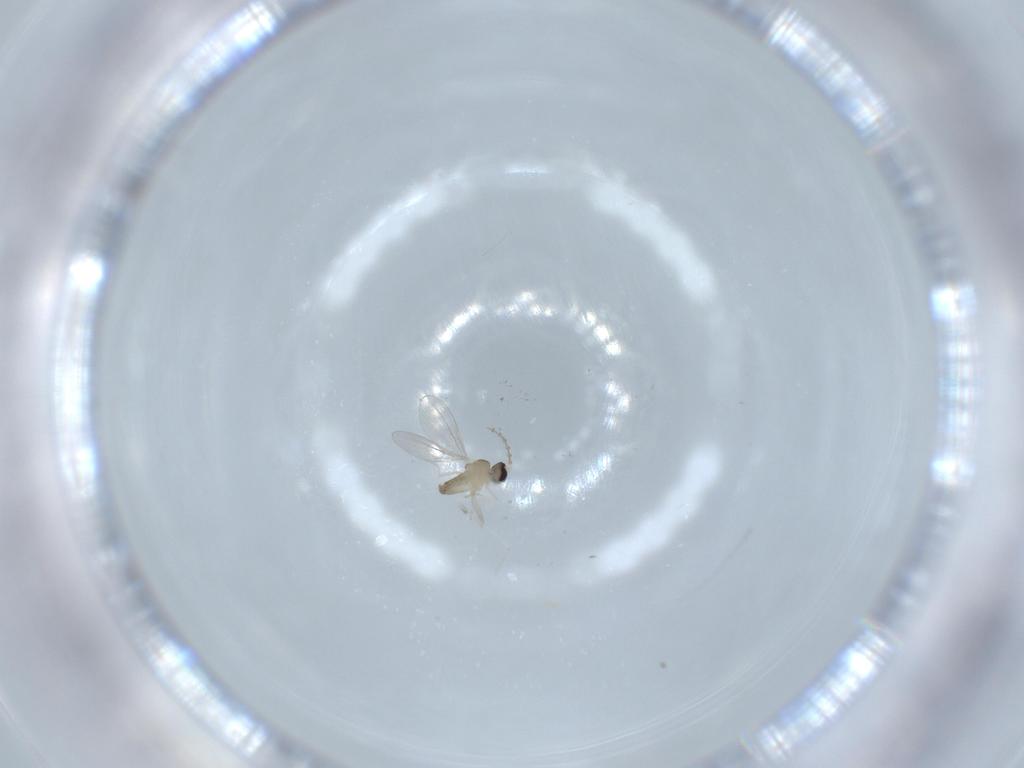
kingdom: Animalia
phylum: Arthropoda
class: Insecta
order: Diptera
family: Cecidomyiidae
